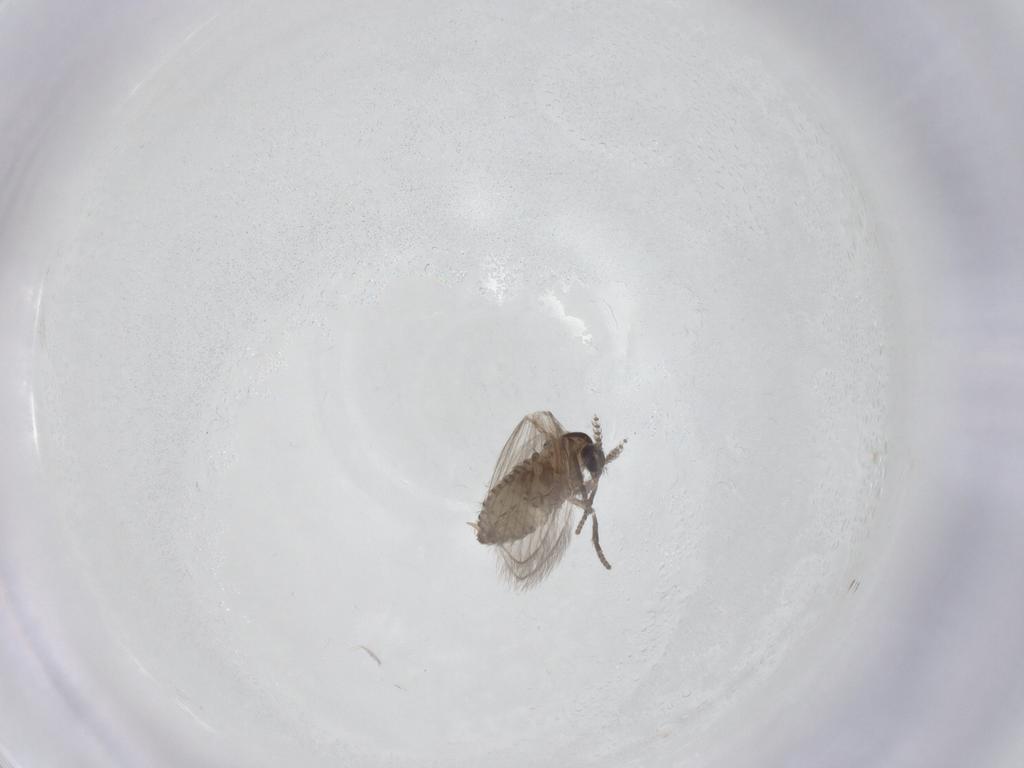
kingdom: Animalia
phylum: Arthropoda
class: Insecta
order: Diptera
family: Psychodidae
